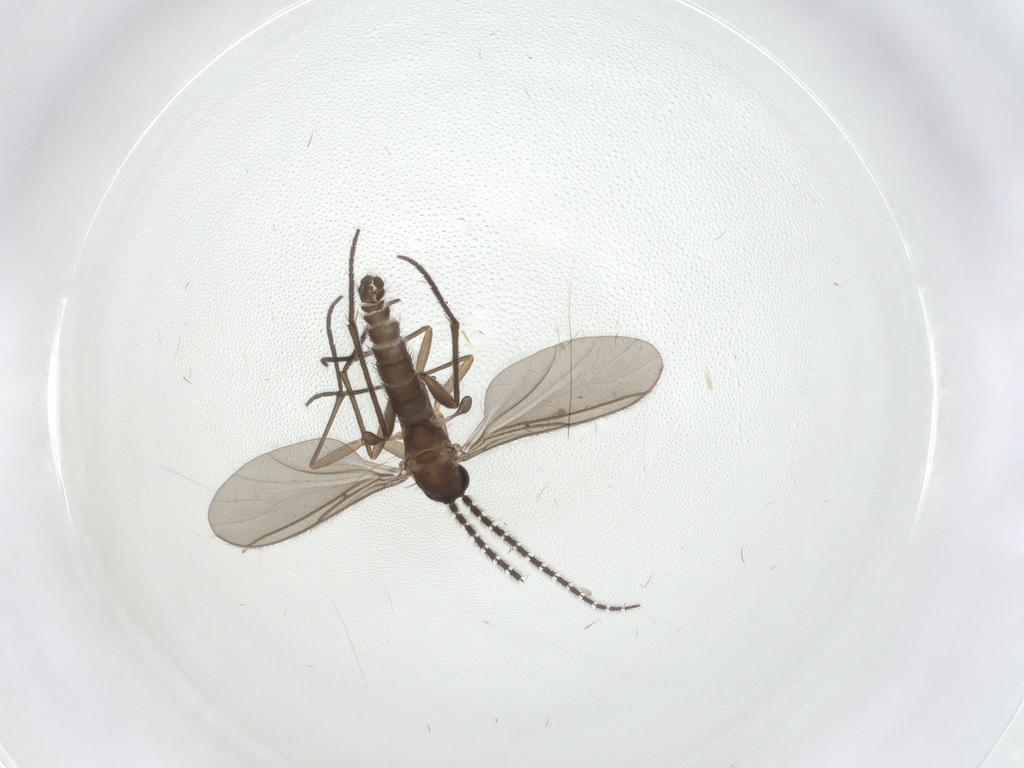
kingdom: Animalia
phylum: Arthropoda
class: Insecta
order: Diptera
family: Sciaridae
